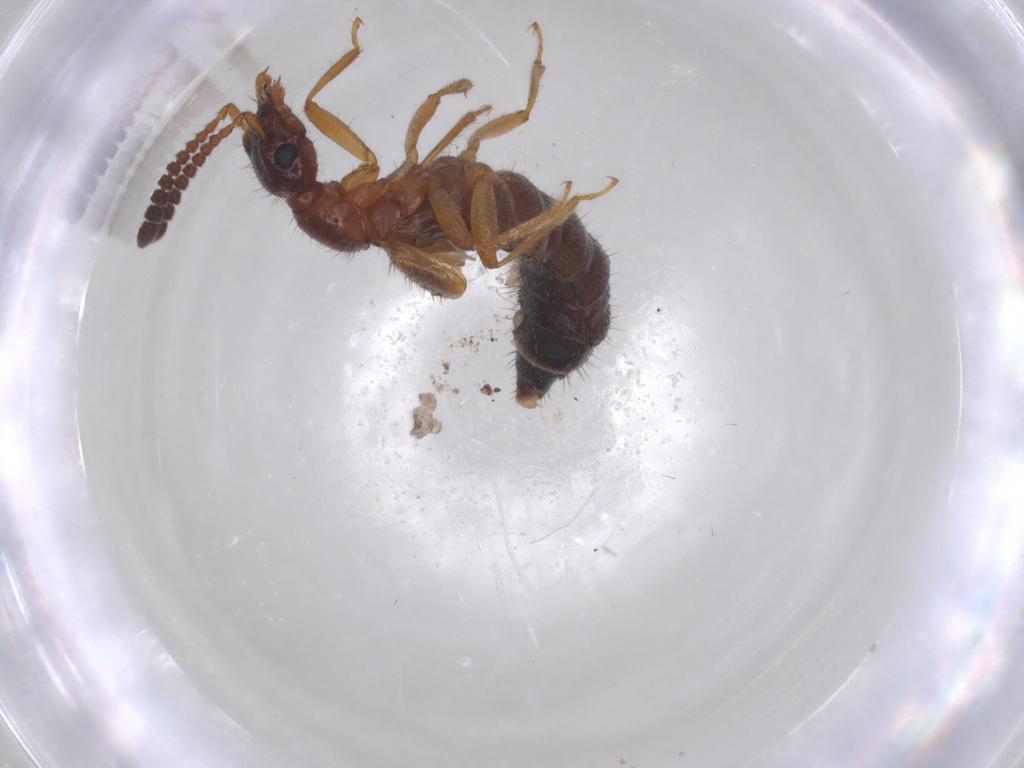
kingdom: Animalia
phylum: Arthropoda
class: Insecta
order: Coleoptera
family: Staphylinidae
